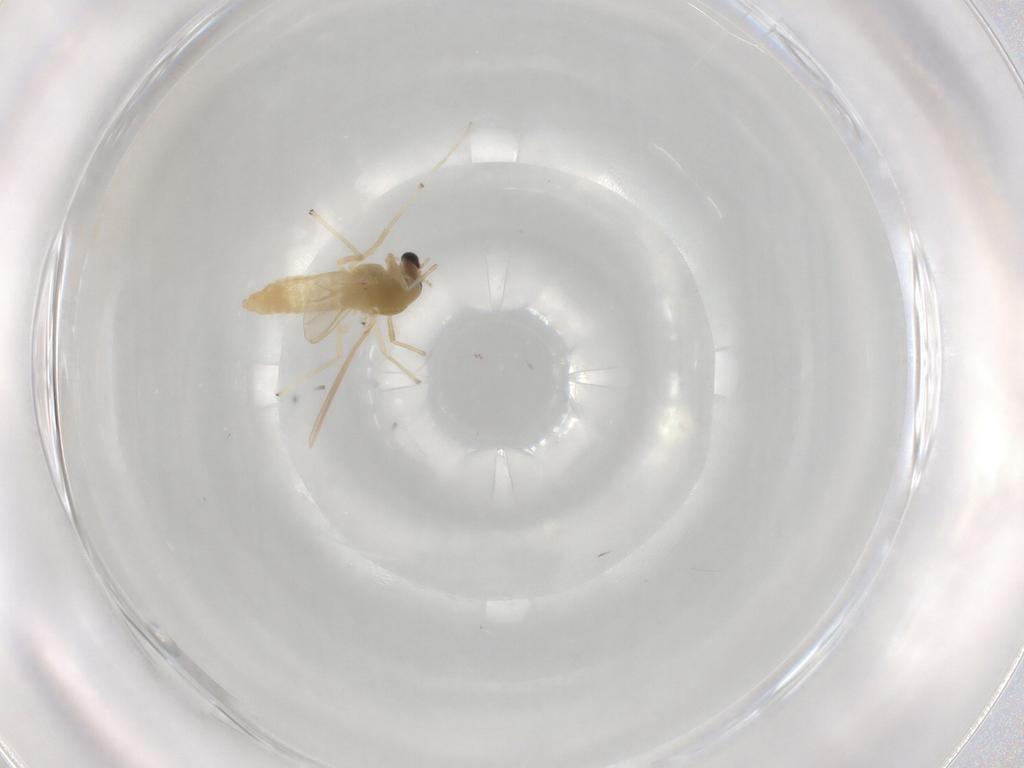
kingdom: Animalia
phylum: Arthropoda
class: Insecta
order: Diptera
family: Chironomidae
